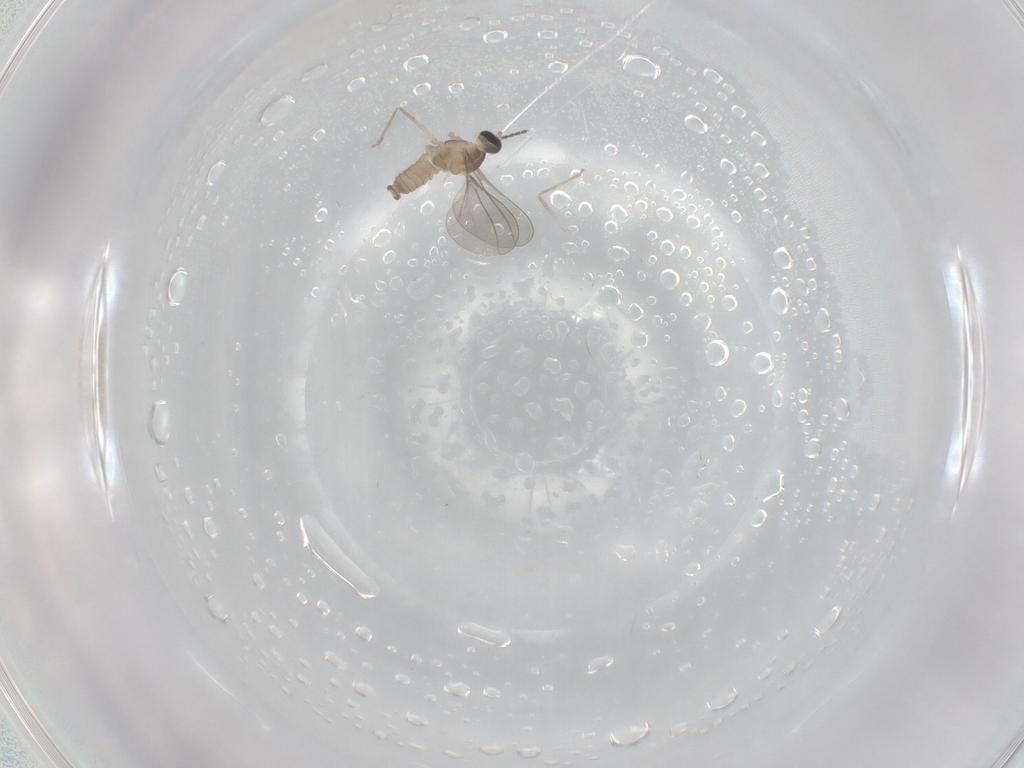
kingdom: Animalia
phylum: Arthropoda
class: Insecta
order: Diptera
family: Cecidomyiidae
